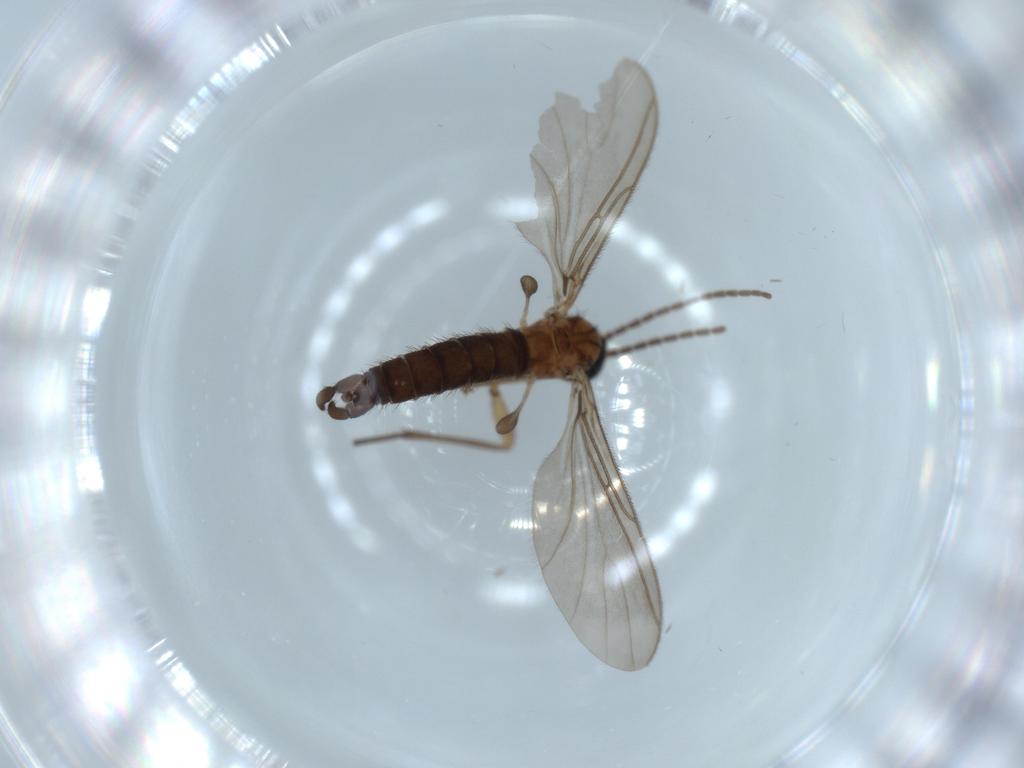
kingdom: Animalia
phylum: Arthropoda
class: Insecta
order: Diptera
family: Sciaridae
